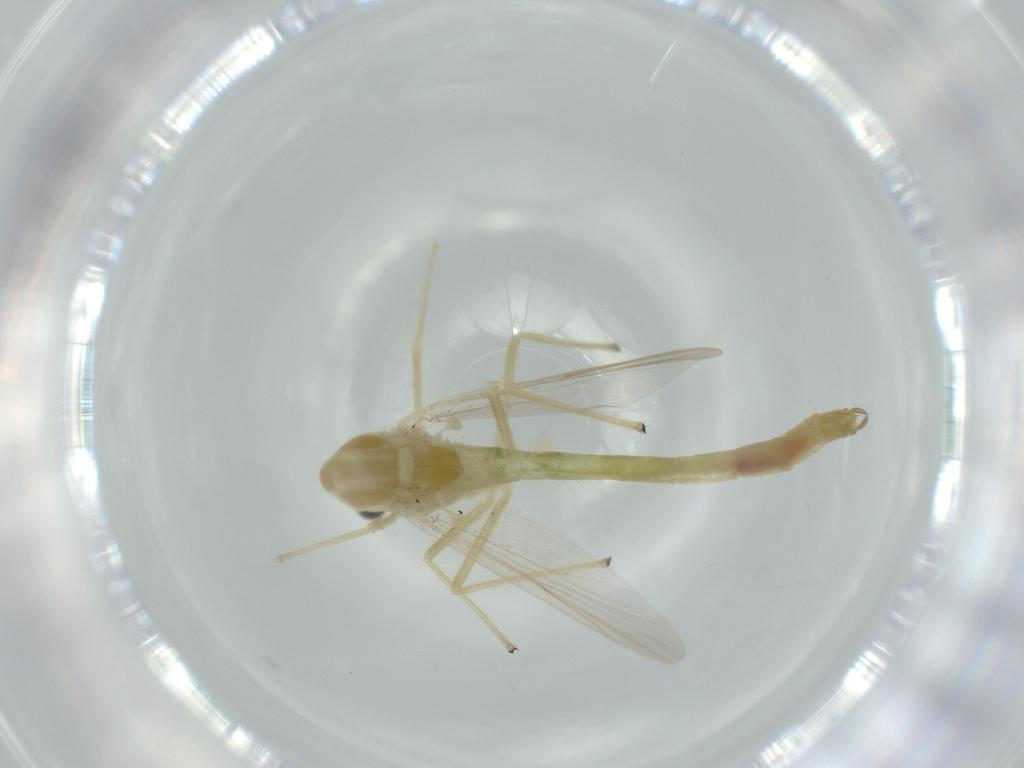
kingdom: Animalia
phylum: Arthropoda
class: Insecta
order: Diptera
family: Chironomidae
